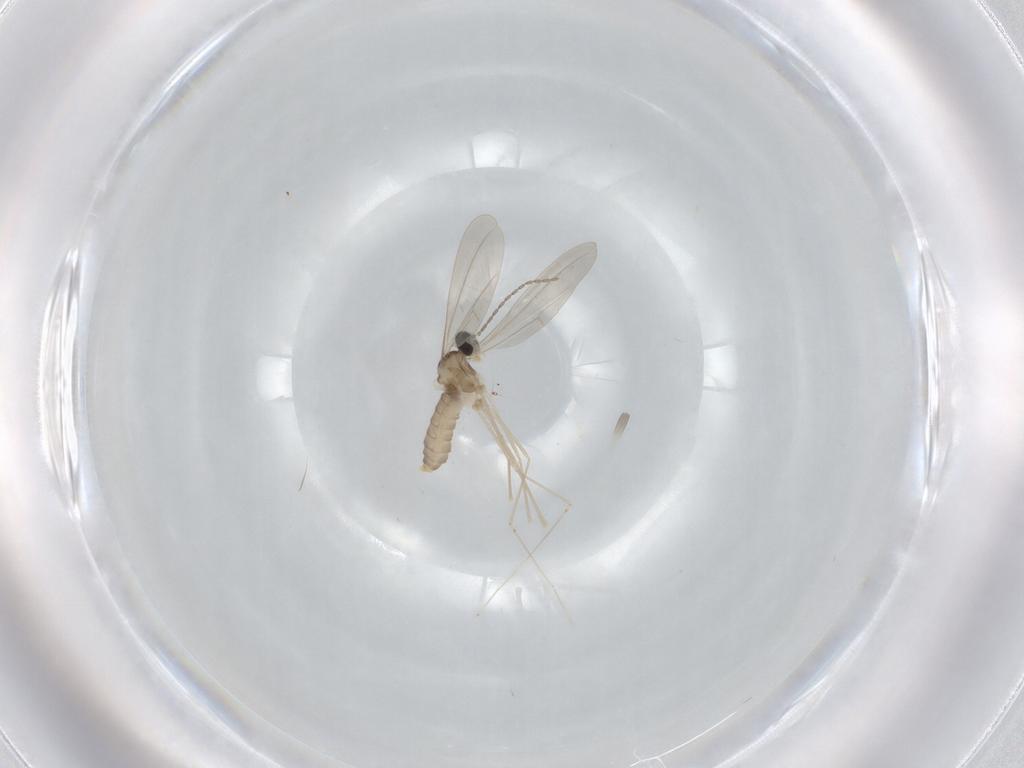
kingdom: Animalia
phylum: Arthropoda
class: Insecta
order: Diptera
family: Cecidomyiidae
